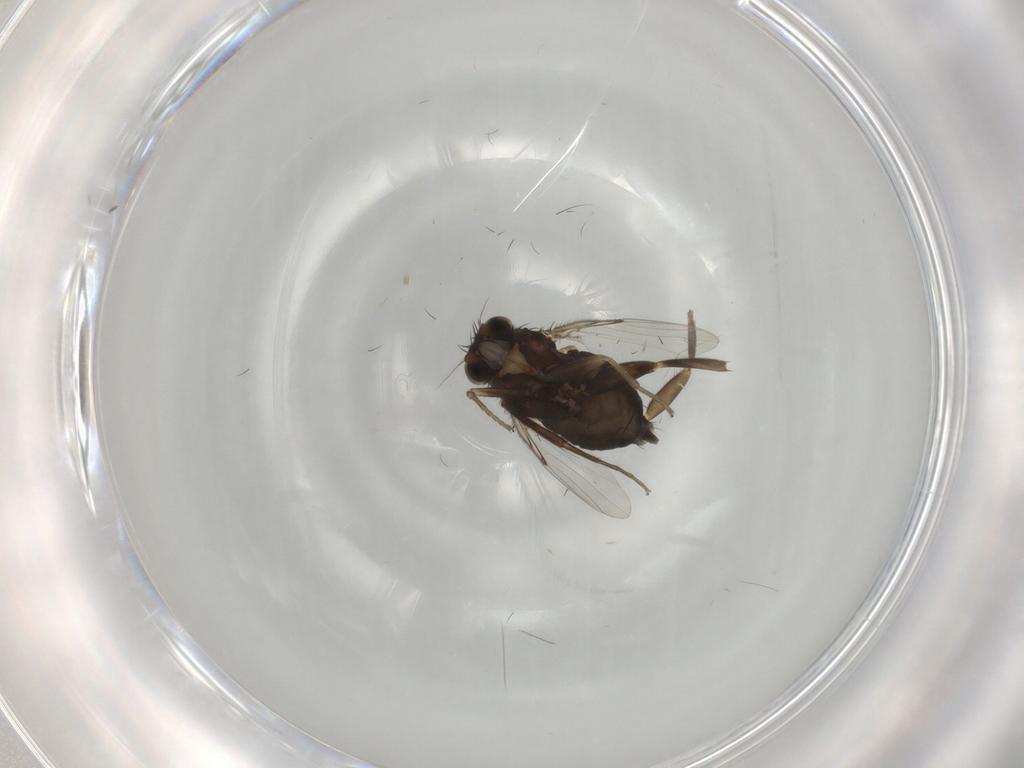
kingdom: Animalia
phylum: Arthropoda
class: Insecta
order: Diptera
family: Phoridae
